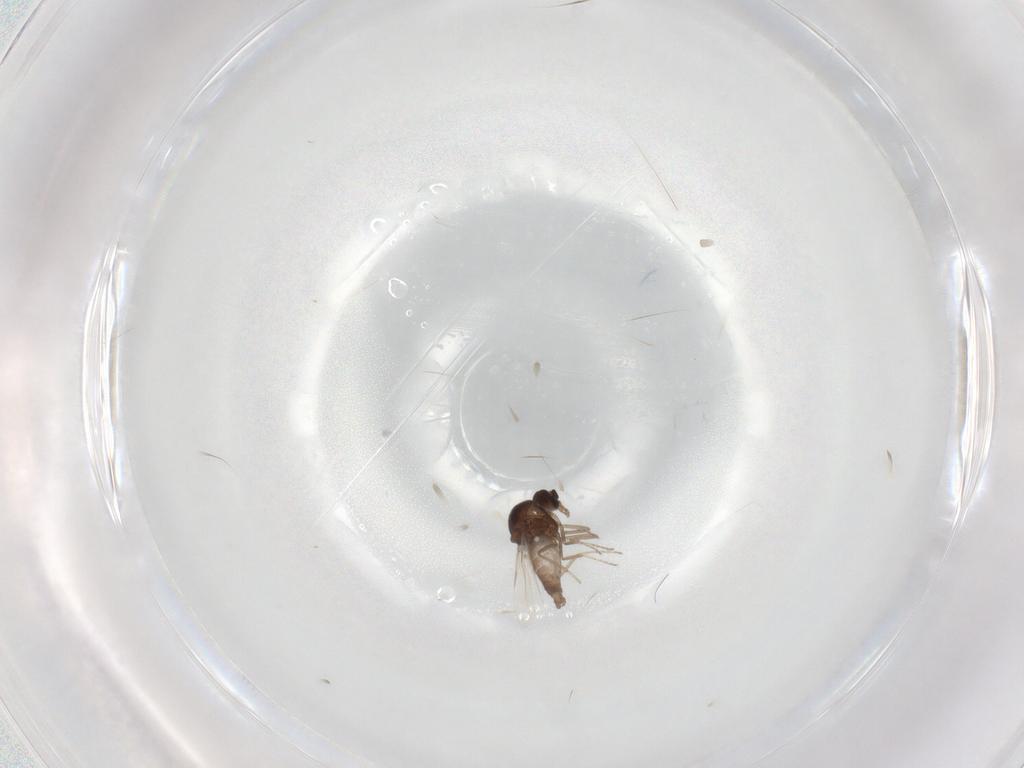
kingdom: Animalia
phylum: Arthropoda
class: Insecta
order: Diptera
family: Ceratopogonidae
